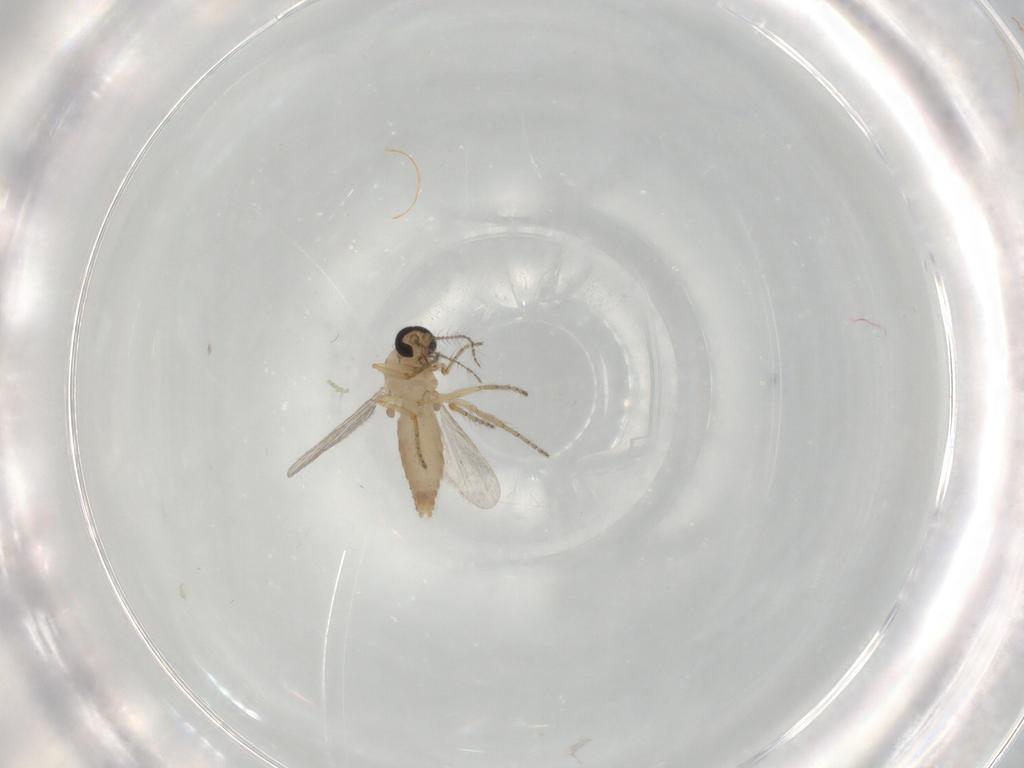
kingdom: Animalia
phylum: Arthropoda
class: Insecta
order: Diptera
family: Ceratopogonidae
